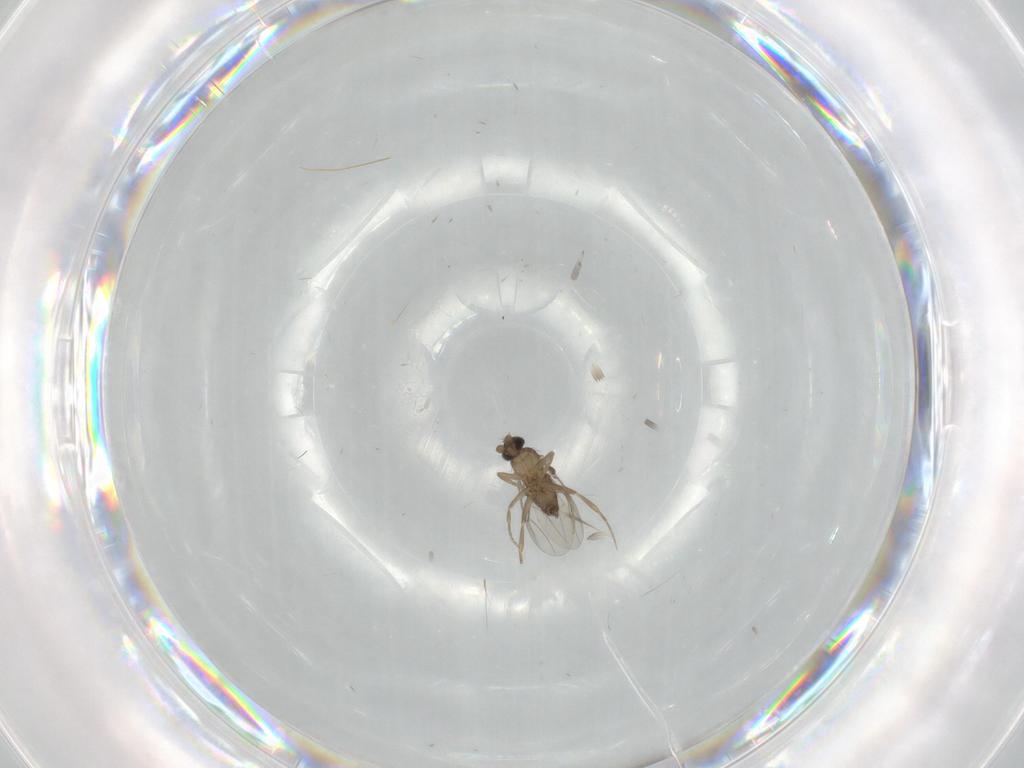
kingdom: Animalia
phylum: Arthropoda
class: Insecta
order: Diptera
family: Phoridae
